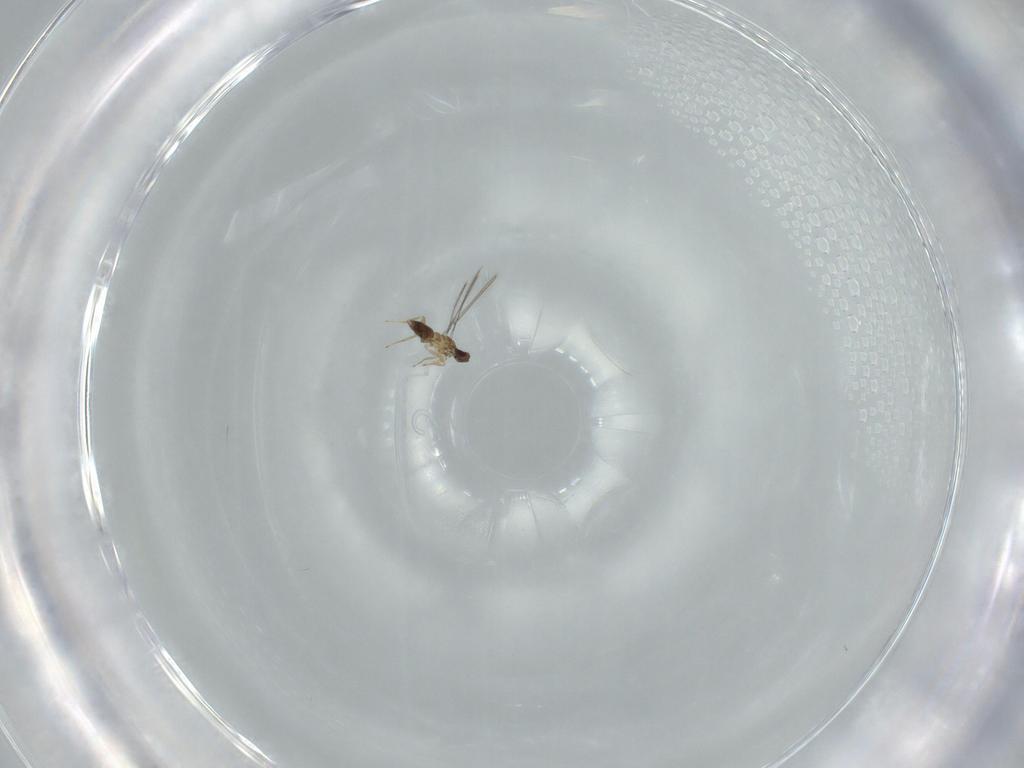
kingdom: Animalia
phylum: Arthropoda
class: Insecta
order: Hymenoptera
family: Mymaridae
